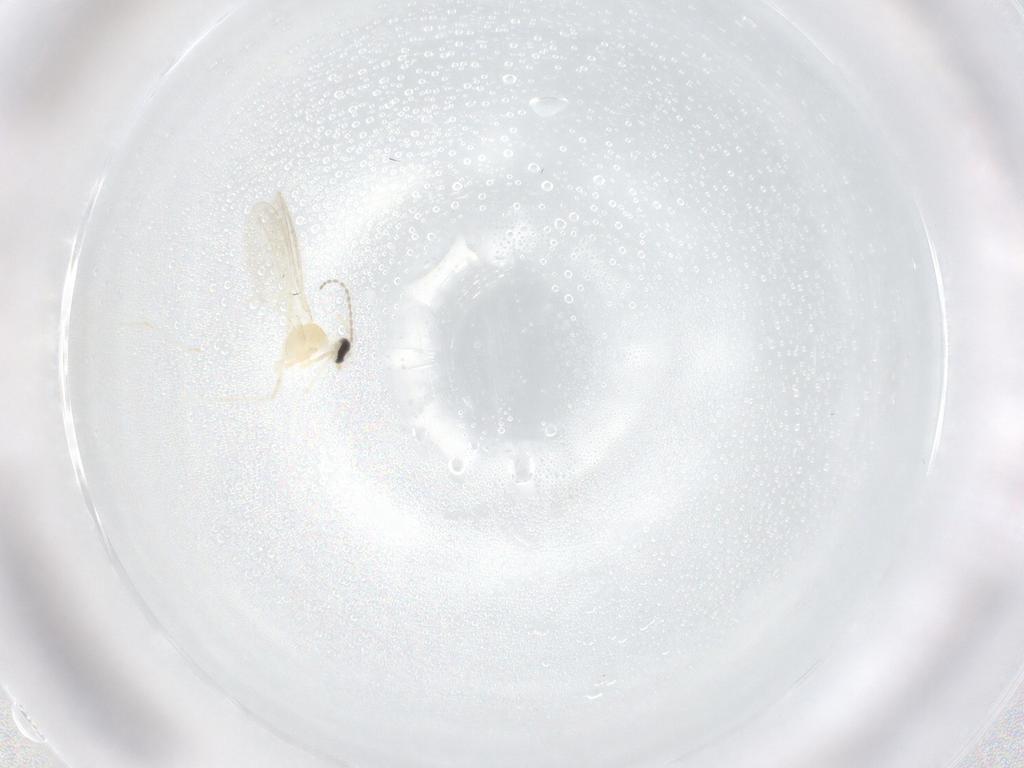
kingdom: Animalia
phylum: Arthropoda
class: Insecta
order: Diptera
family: Cecidomyiidae
